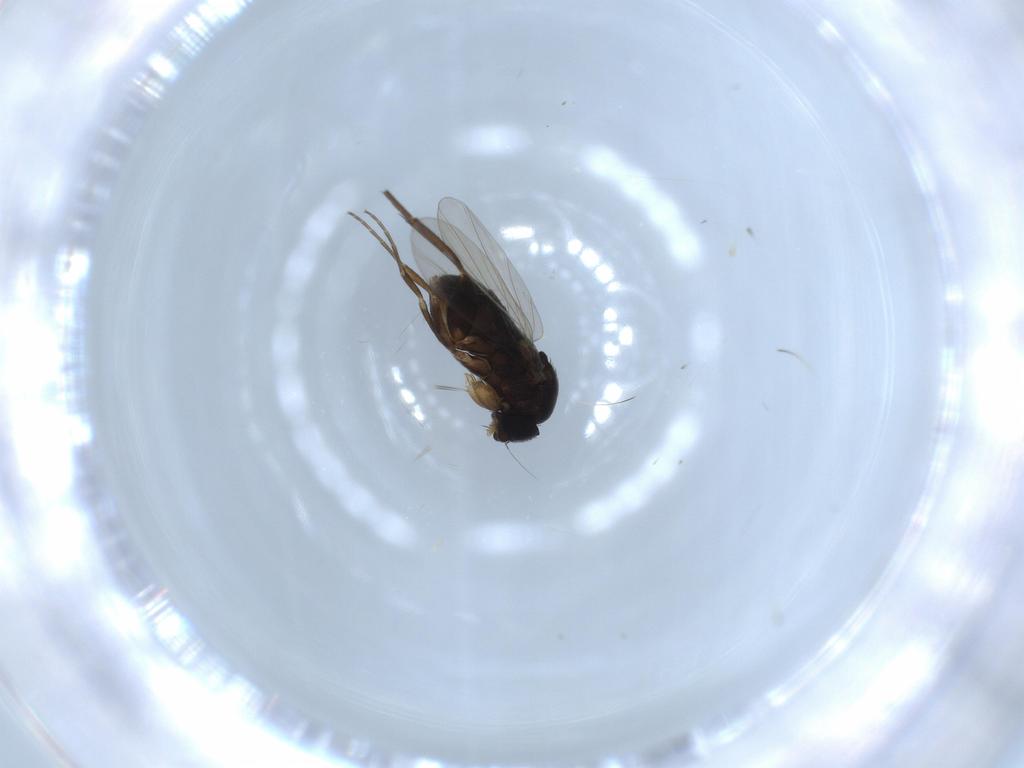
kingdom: Animalia
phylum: Arthropoda
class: Insecta
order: Diptera
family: Phoridae
